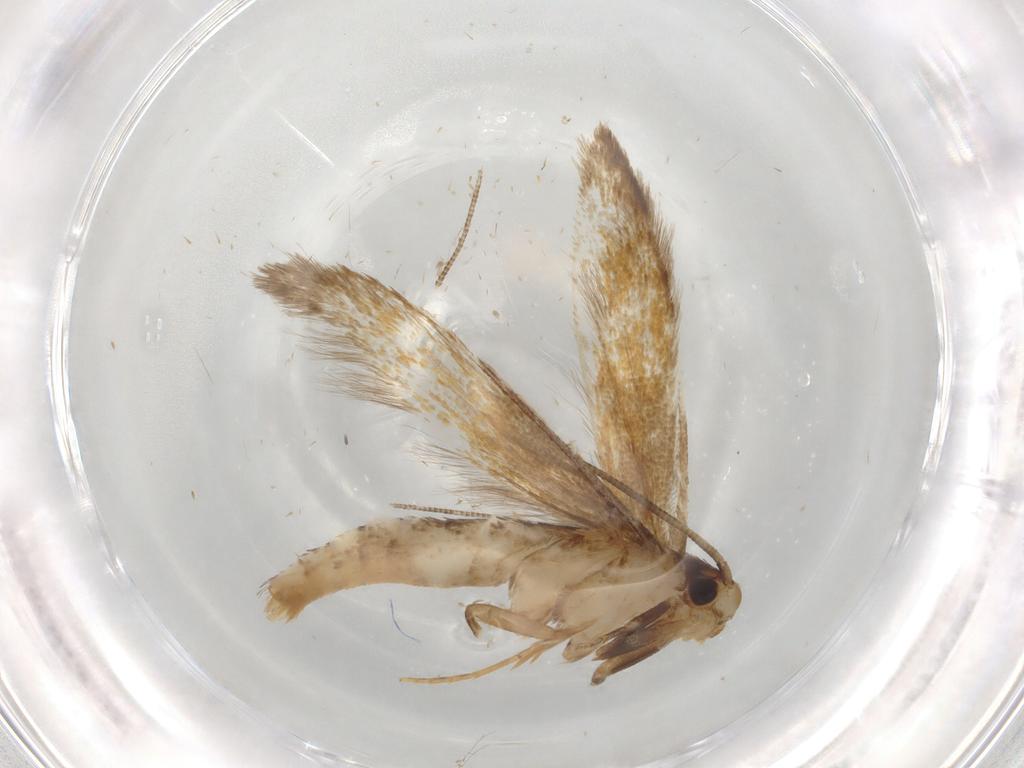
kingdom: Animalia
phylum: Arthropoda
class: Insecta
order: Lepidoptera
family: Tineidae
